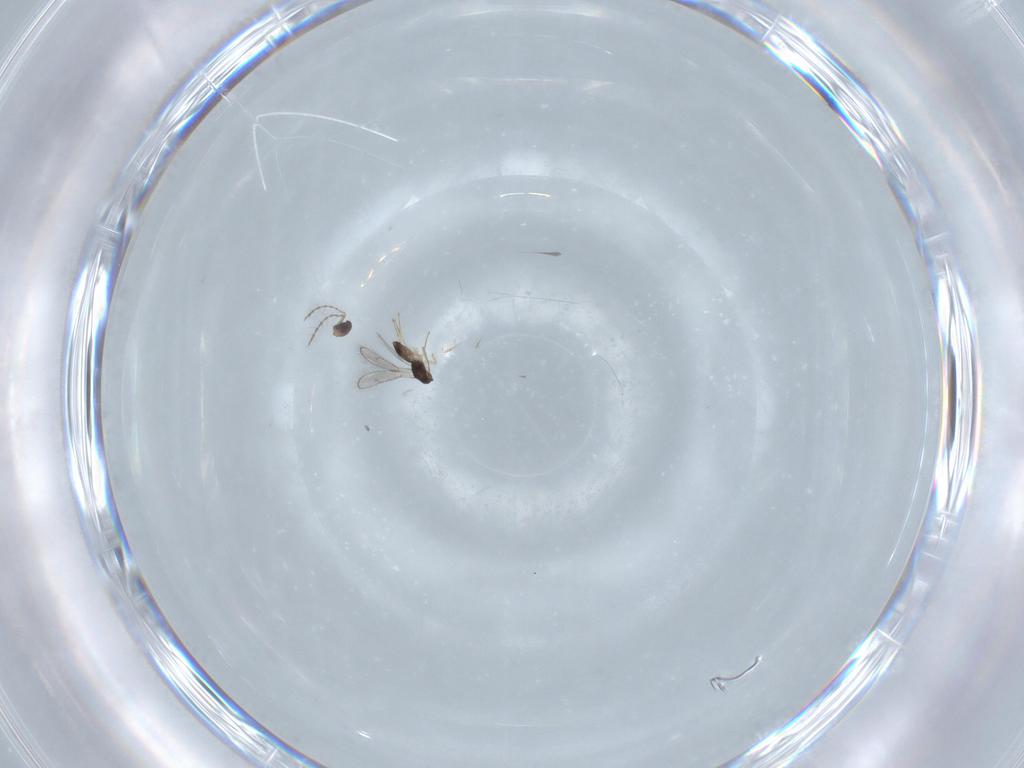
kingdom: Animalia
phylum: Arthropoda
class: Insecta
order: Hymenoptera
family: Pteromalidae
